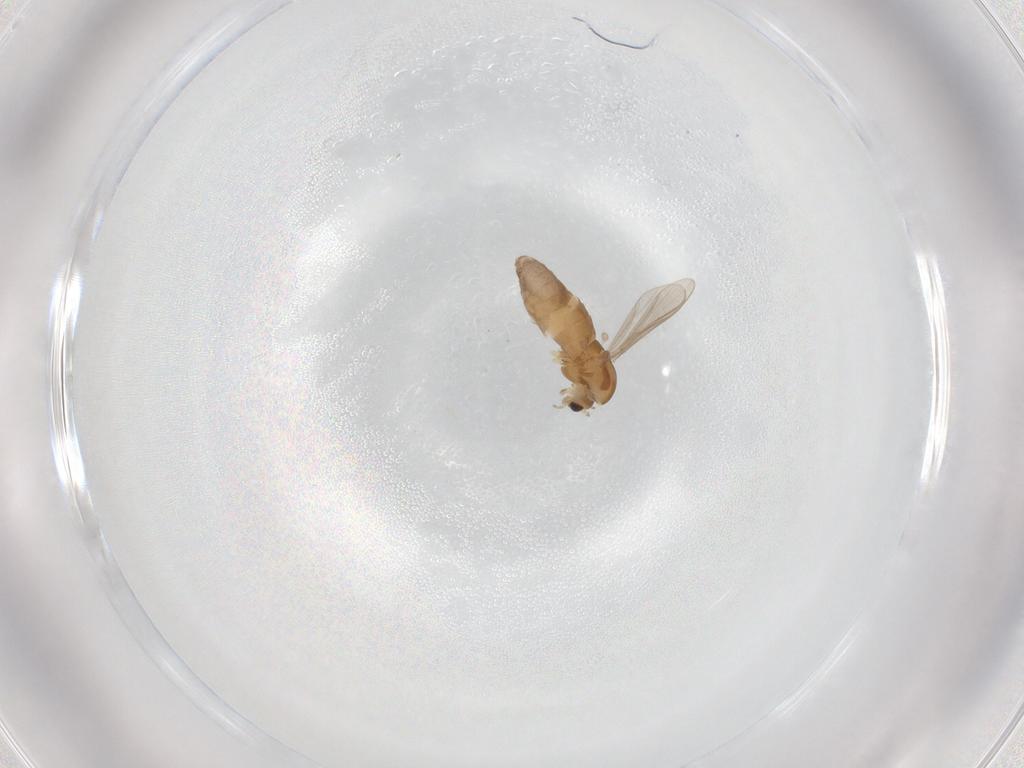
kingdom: Animalia
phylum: Arthropoda
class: Insecta
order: Diptera
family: Chironomidae
